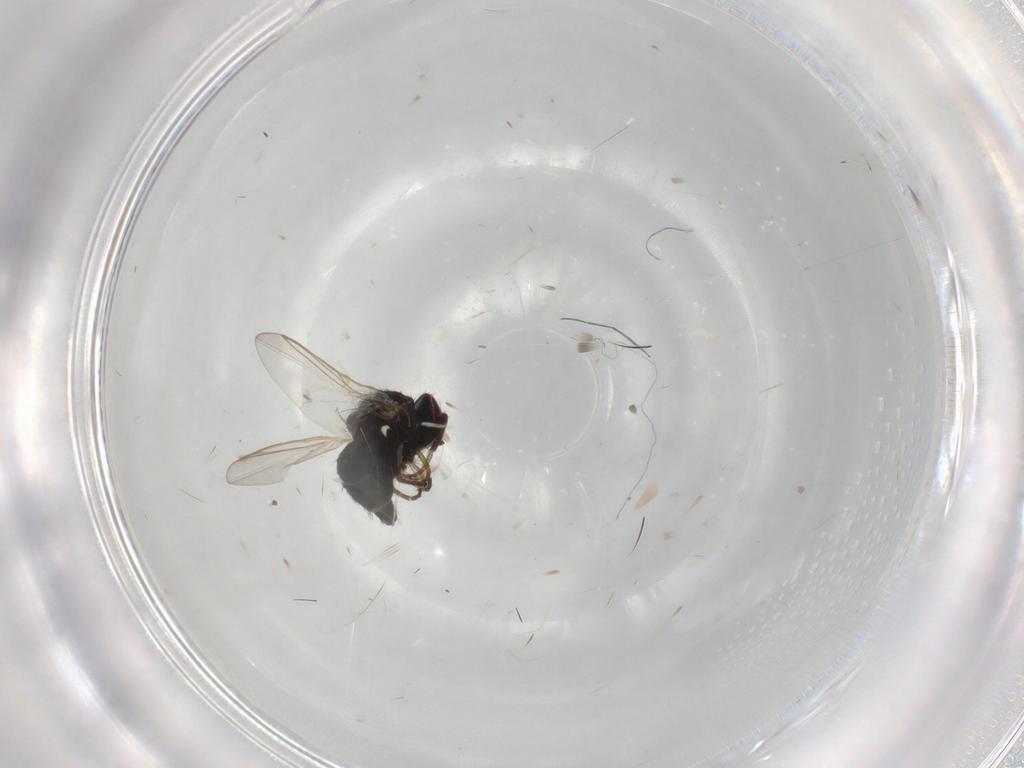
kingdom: Animalia
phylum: Arthropoda
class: Insecta
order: Diptera
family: Agromyzidae
